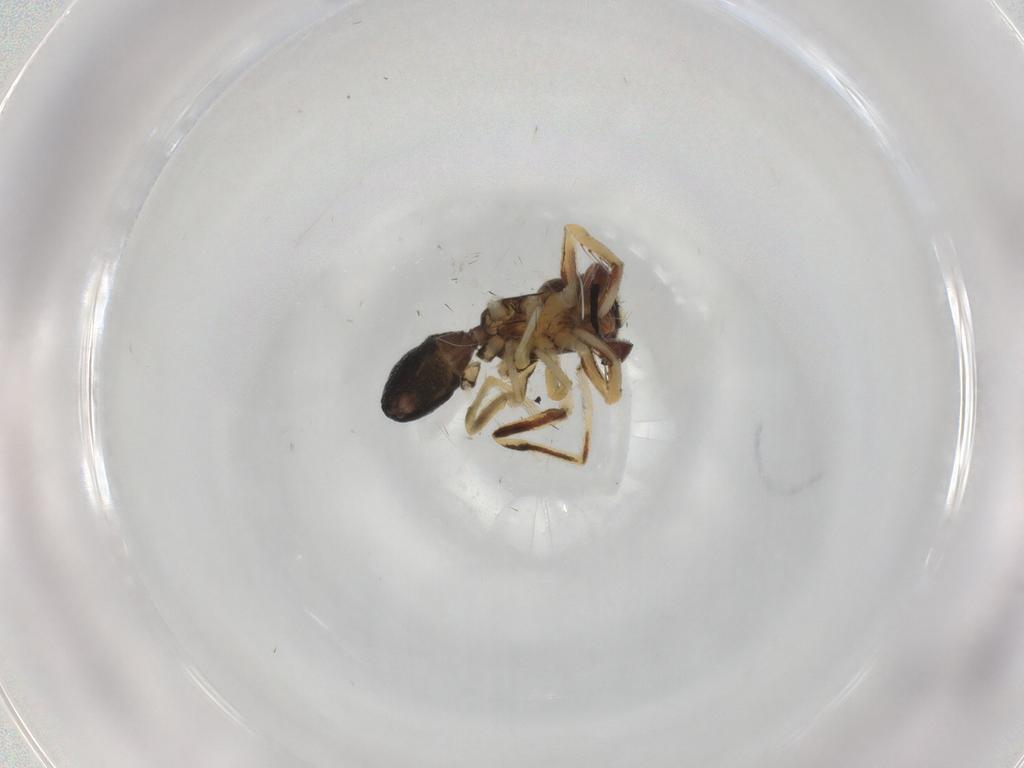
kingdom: Animalia
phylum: Arthropoda
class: Arachnida
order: Araneae
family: Salticidae
